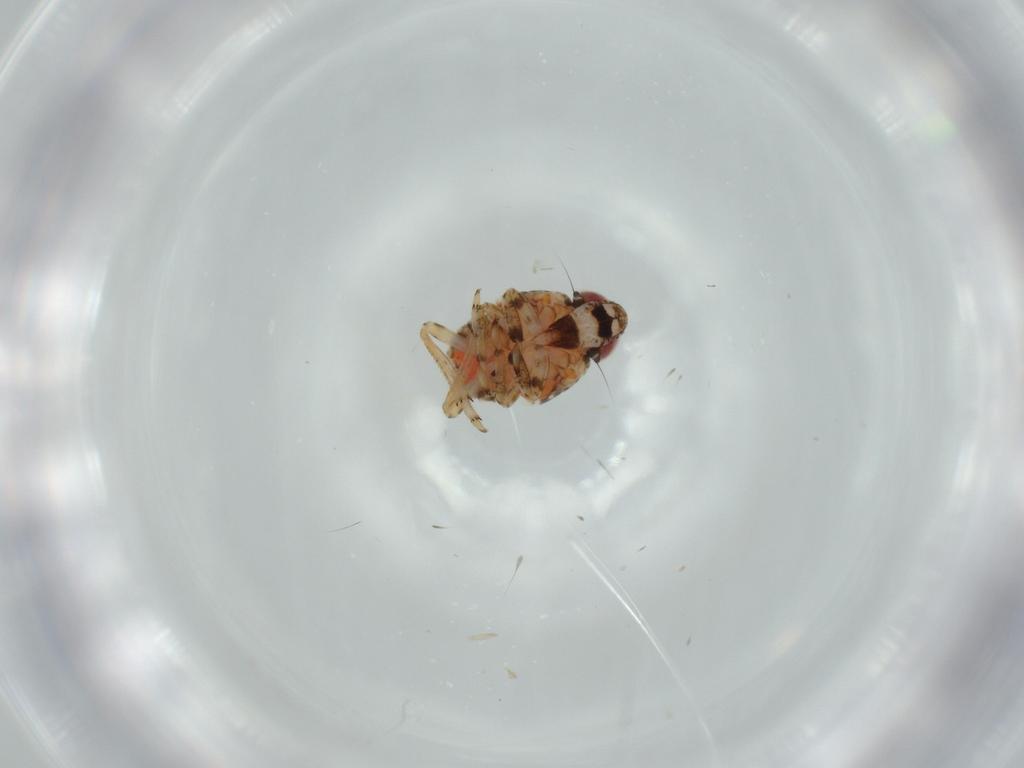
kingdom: Animalia
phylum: Arthropoda
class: Insecta
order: Hemiptera
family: Issidae
